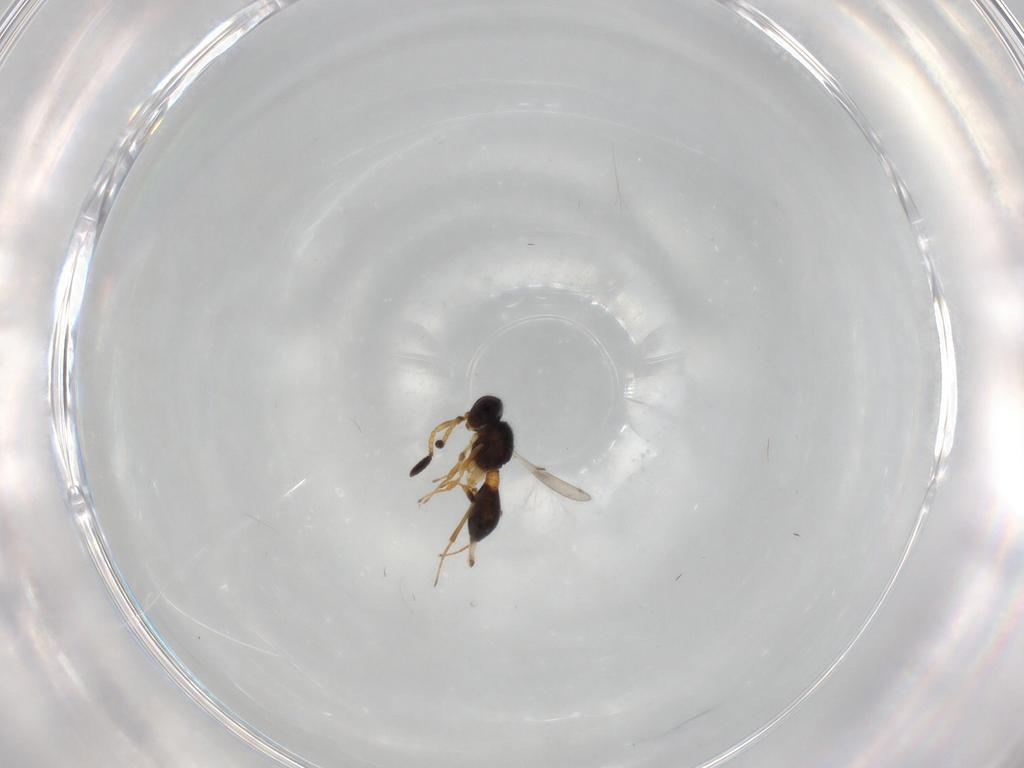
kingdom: Animalia
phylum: Arthropoda
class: Insecta
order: Hymenoptera
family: Scelionidae
